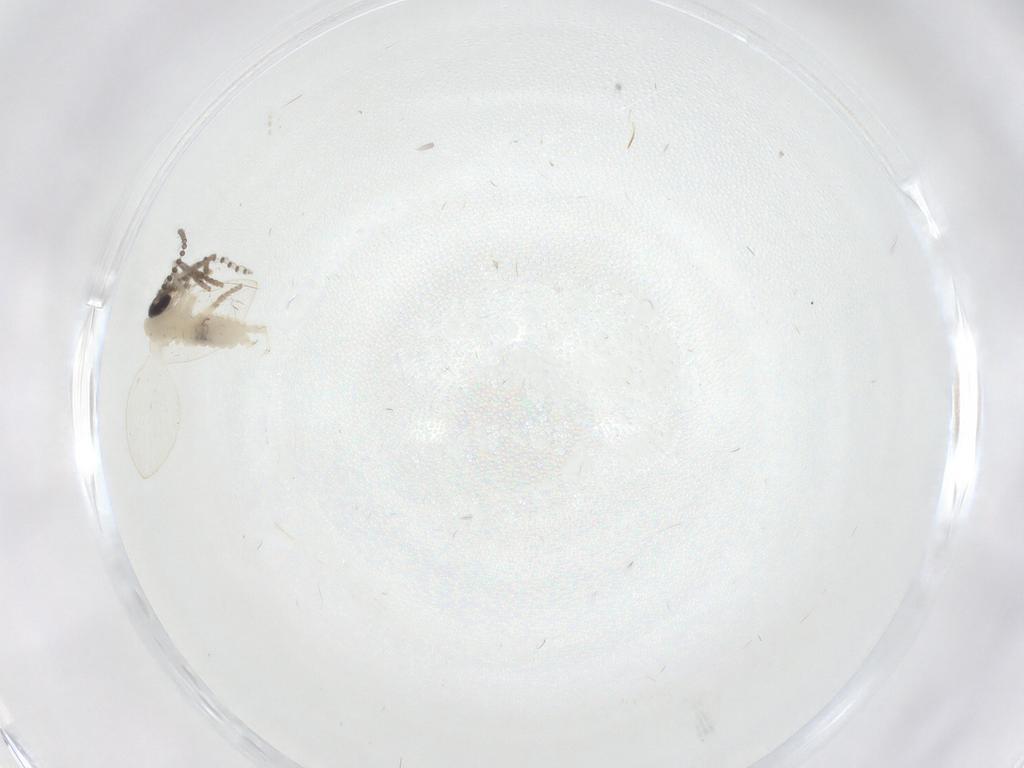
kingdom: Animalia
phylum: Arthropoda
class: Insecta
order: Diptera
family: Psychodidae
